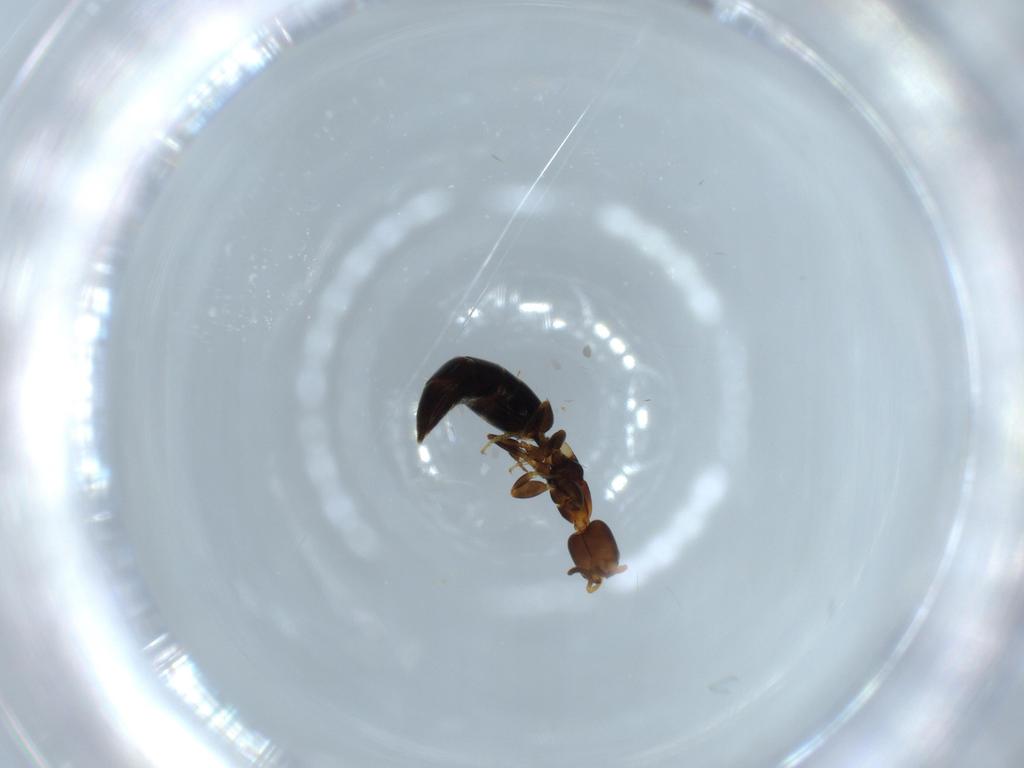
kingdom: Animalia
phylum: Arthropoda
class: Insecta
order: Hymenoptera
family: Bethylidae
